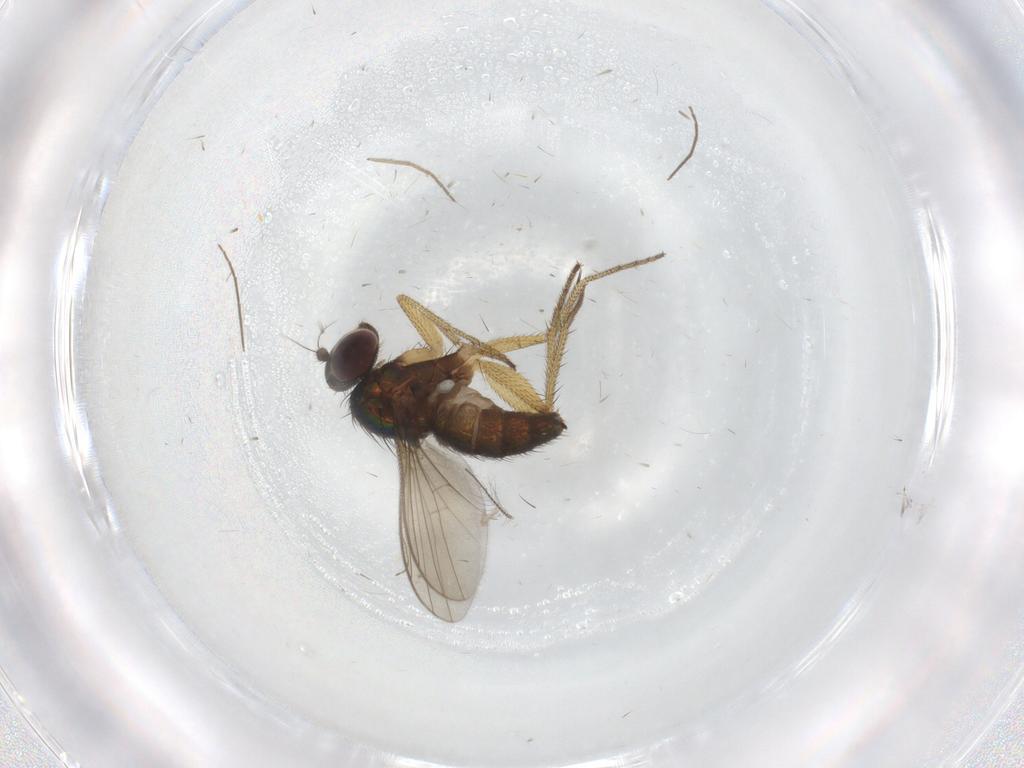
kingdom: Animalia
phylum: Arthropoda
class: Insecta
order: Diptera
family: Chironomidae
